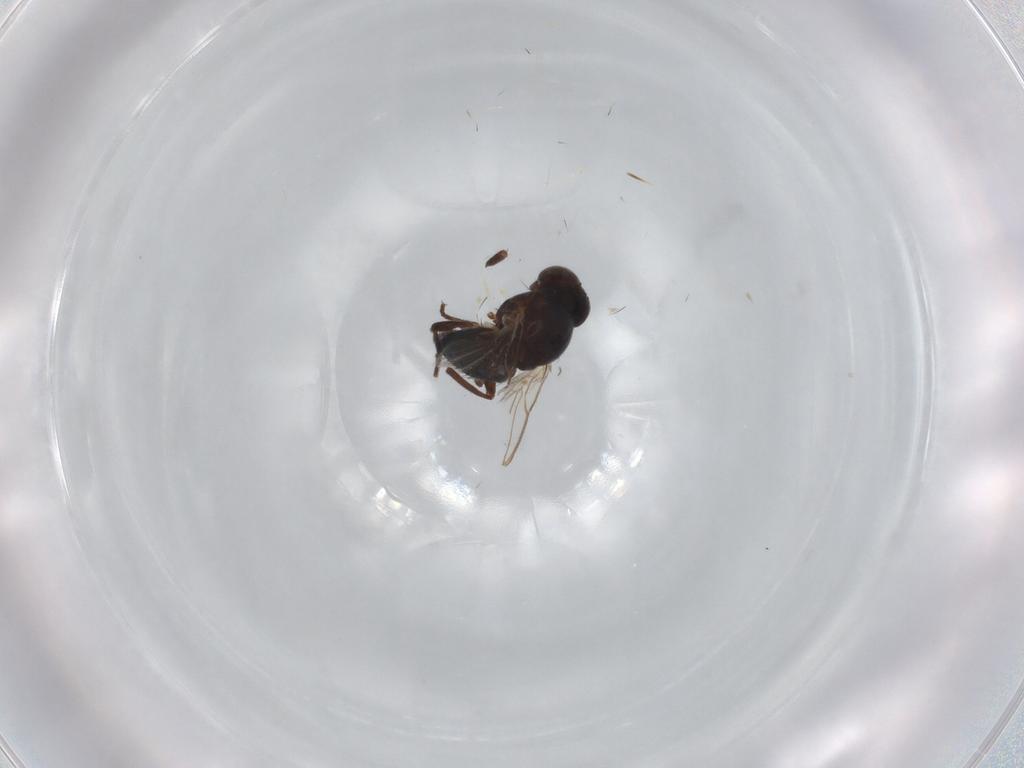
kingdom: Animalia
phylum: Arthropoda
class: Insecta
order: Diptera
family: Agromyzidae
